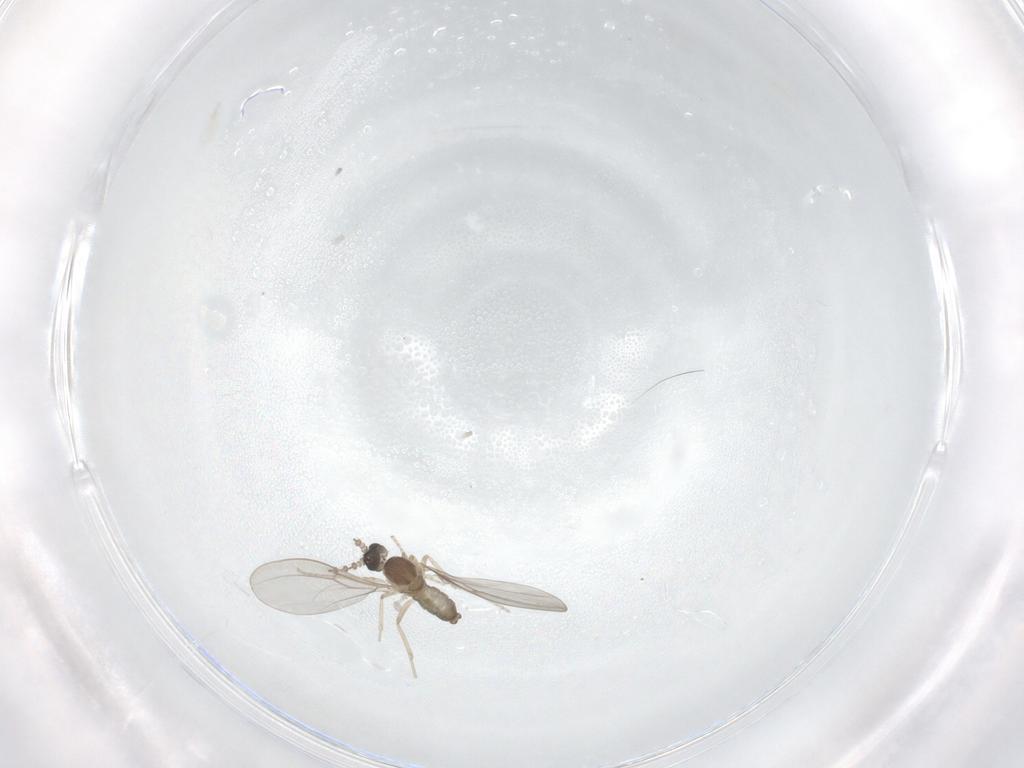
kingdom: Animalia
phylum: Arthropoda
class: Insecta
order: Diptera
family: Cecidomyiidae
